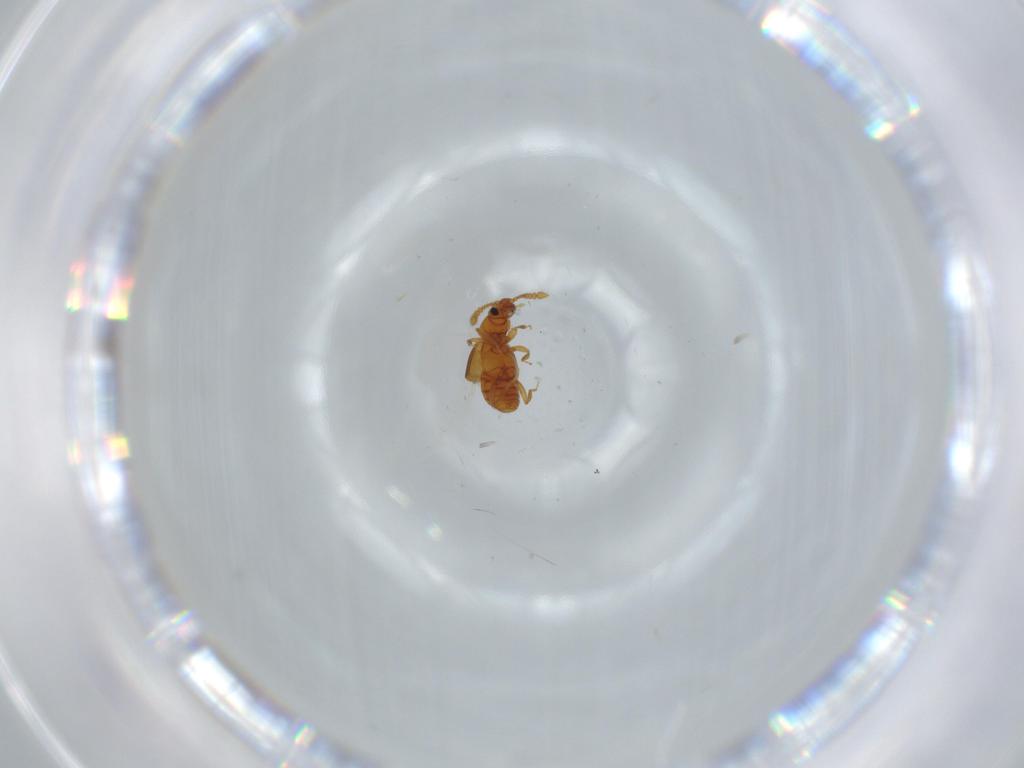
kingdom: Animalia
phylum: Arthropoda
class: Insecta
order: Coleoptera
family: Staphylinidae
